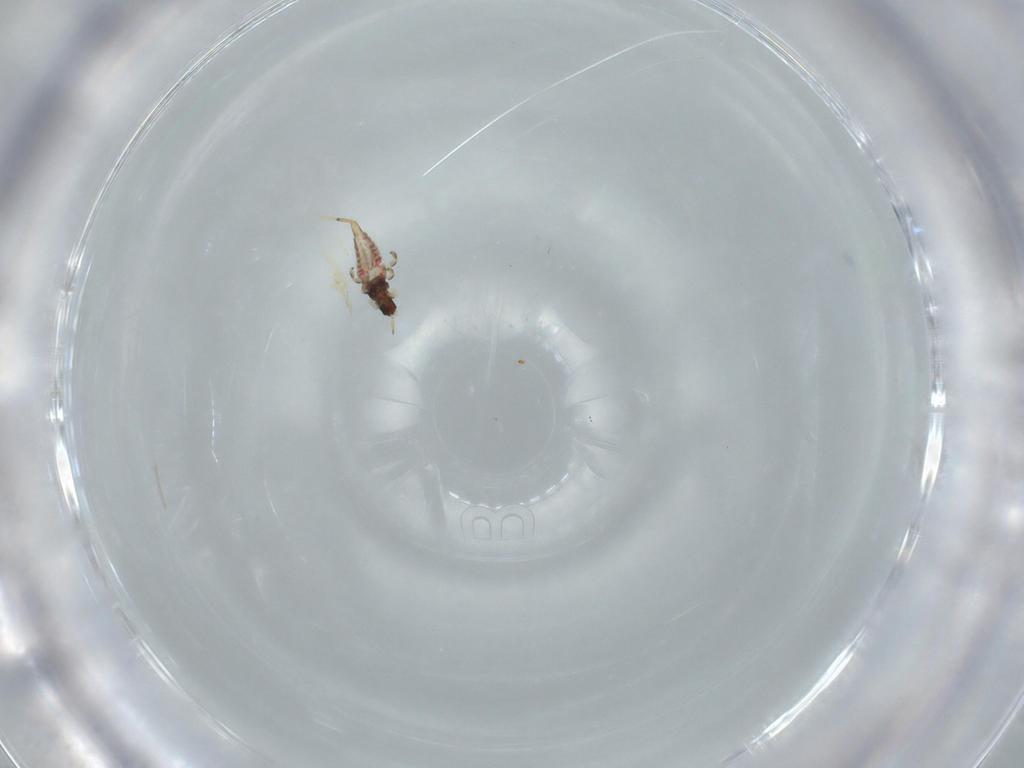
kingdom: Animalia
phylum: Arthropoda
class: Insecta
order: Thysanoptera
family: Phlaeothripidae
